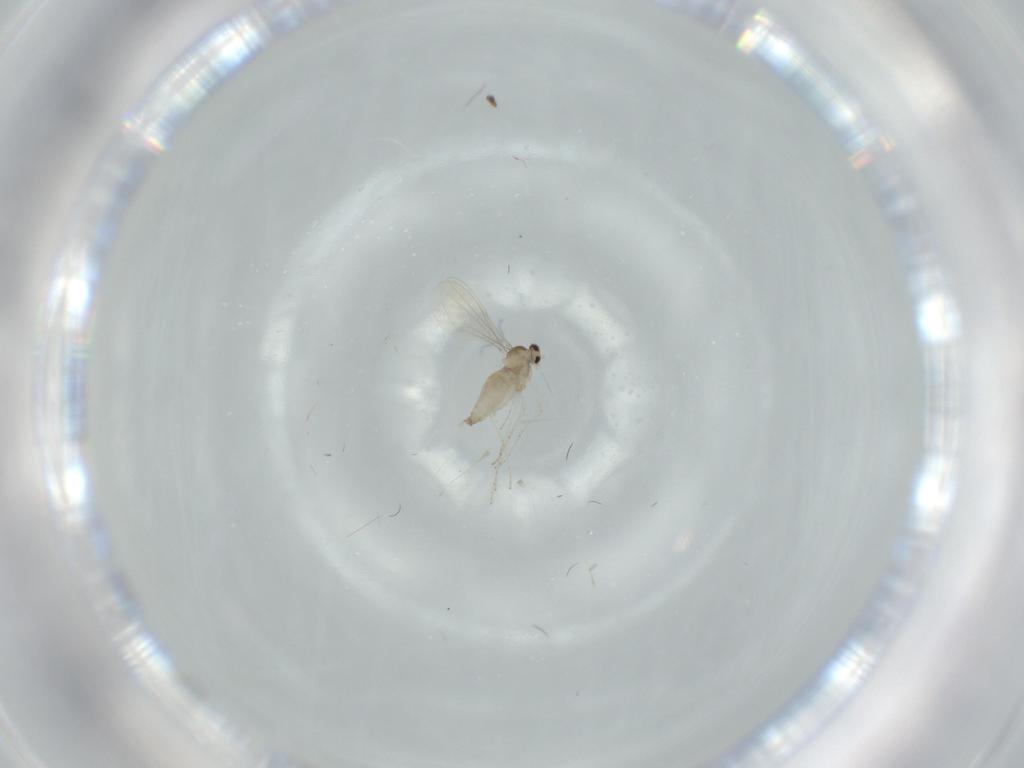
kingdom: Animalia
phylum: Arthropoda
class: Insecta
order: Diptera
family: Cecidomyiidae
